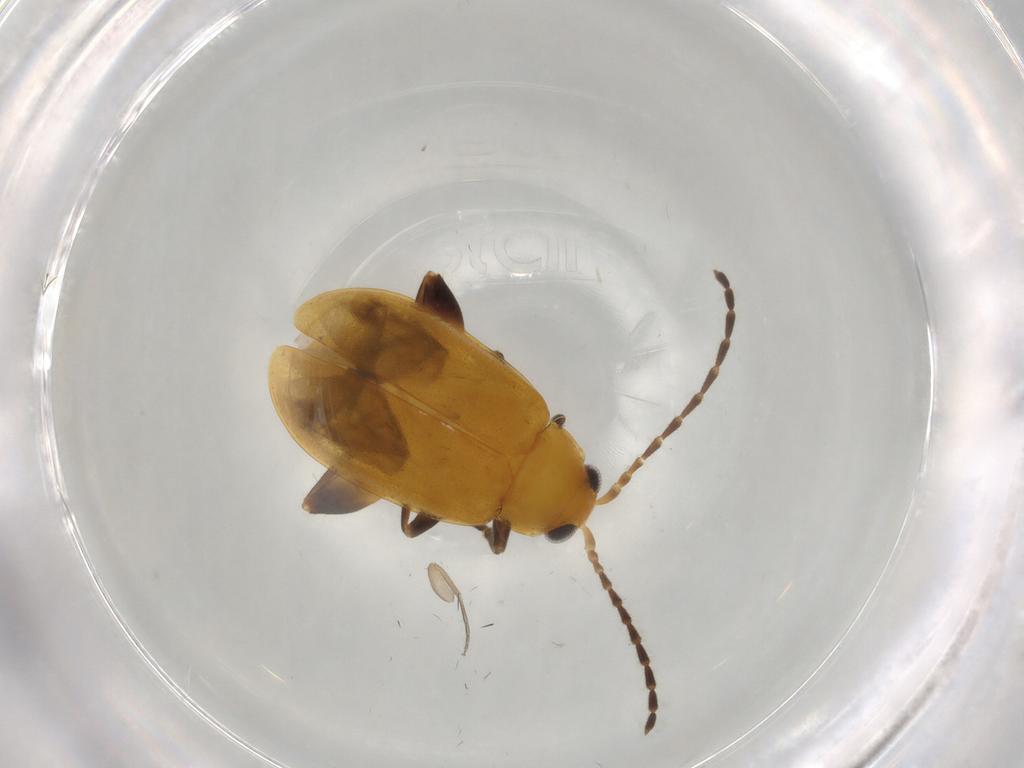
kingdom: Animalia
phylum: Arthropoda
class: Insecta
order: Coleoptera
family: Chrysomelidae
